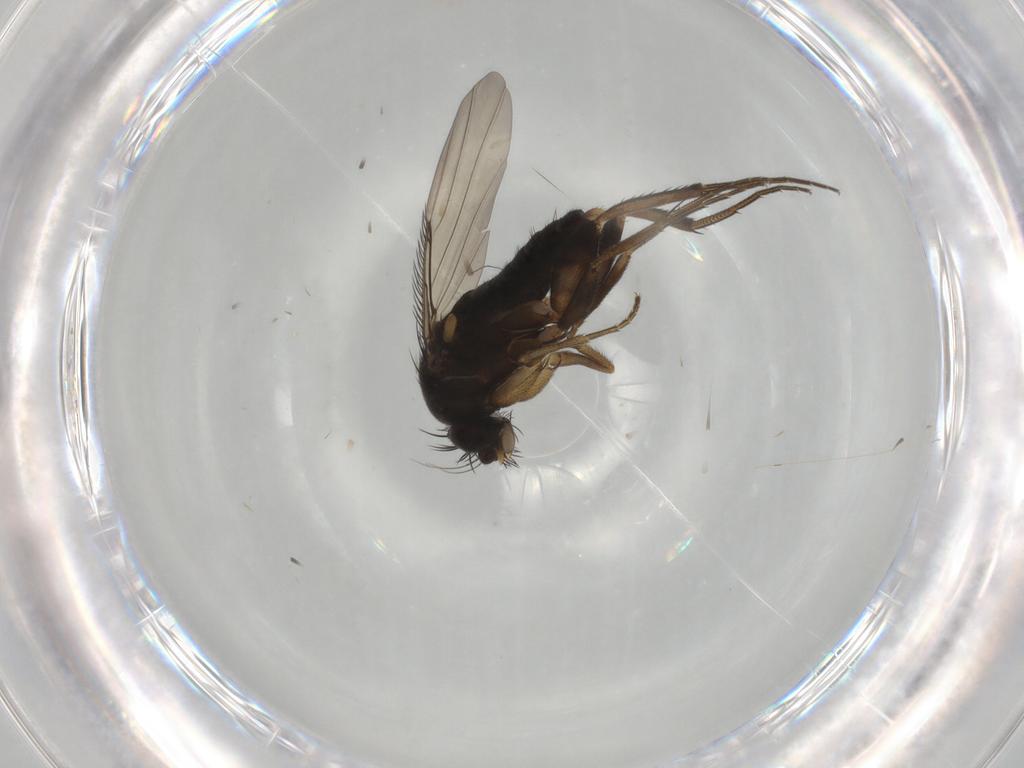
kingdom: Animalia
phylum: Arthropoda
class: Insecta
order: Diptera
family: Phoridae
